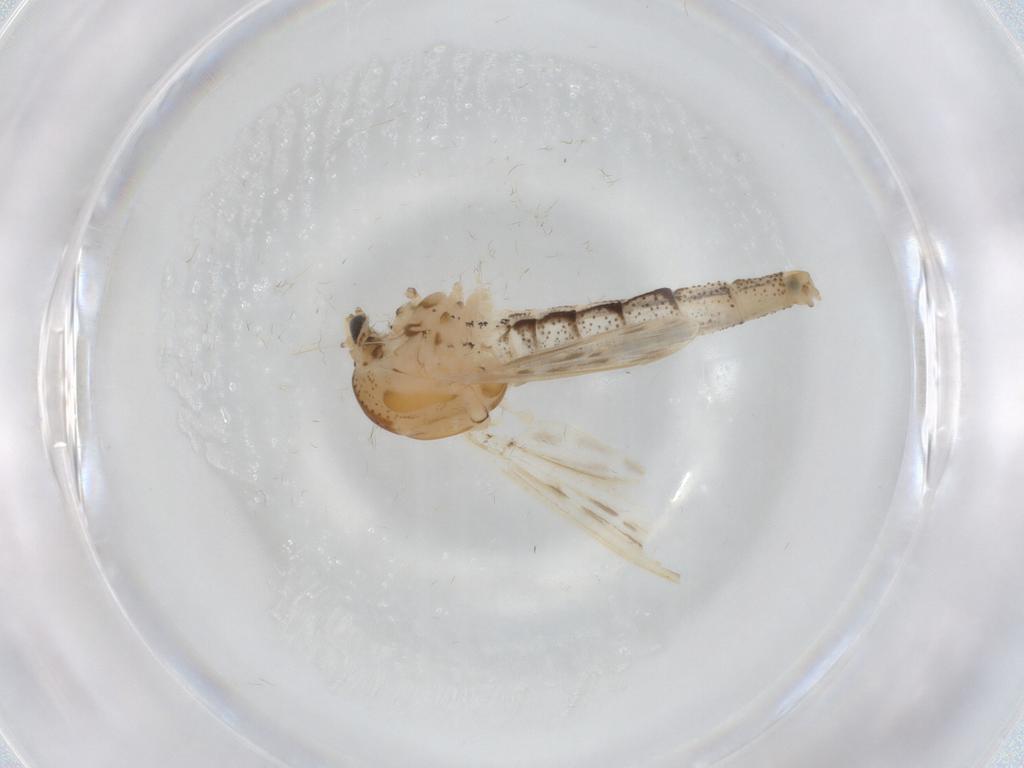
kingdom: Animalia
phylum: Arthropoda
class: Insecta
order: Diptera
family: Chaoboridae
